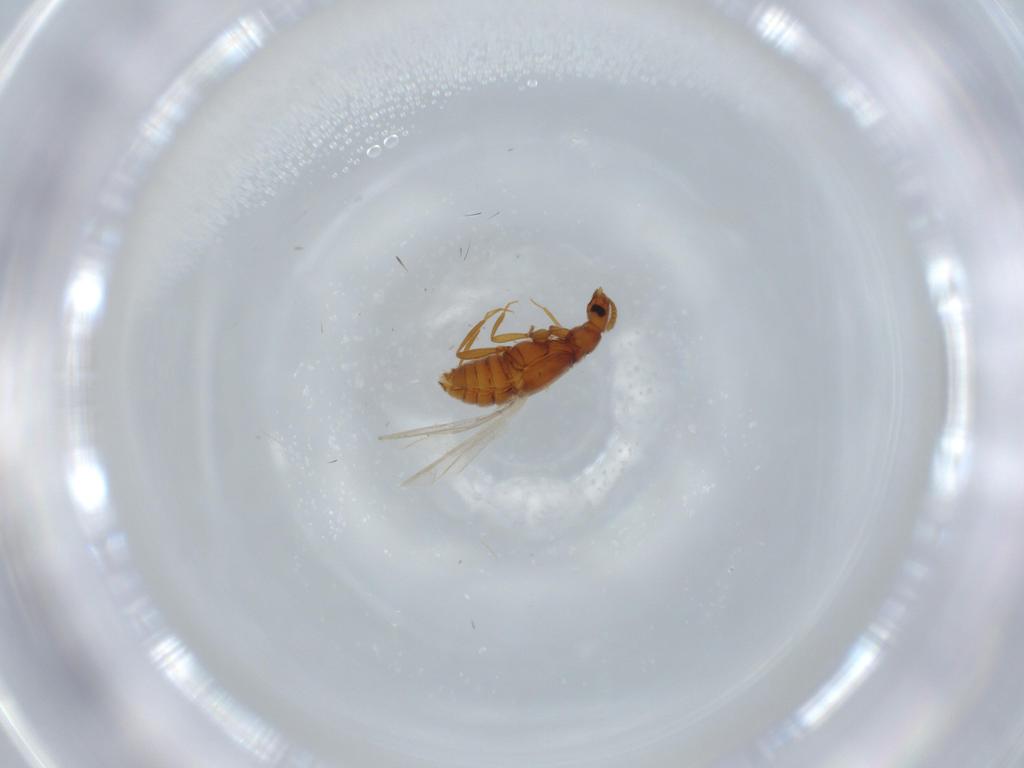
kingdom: Animalia
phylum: Arthropoda
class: Insecta
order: Coleoptera
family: Staphylinidae
